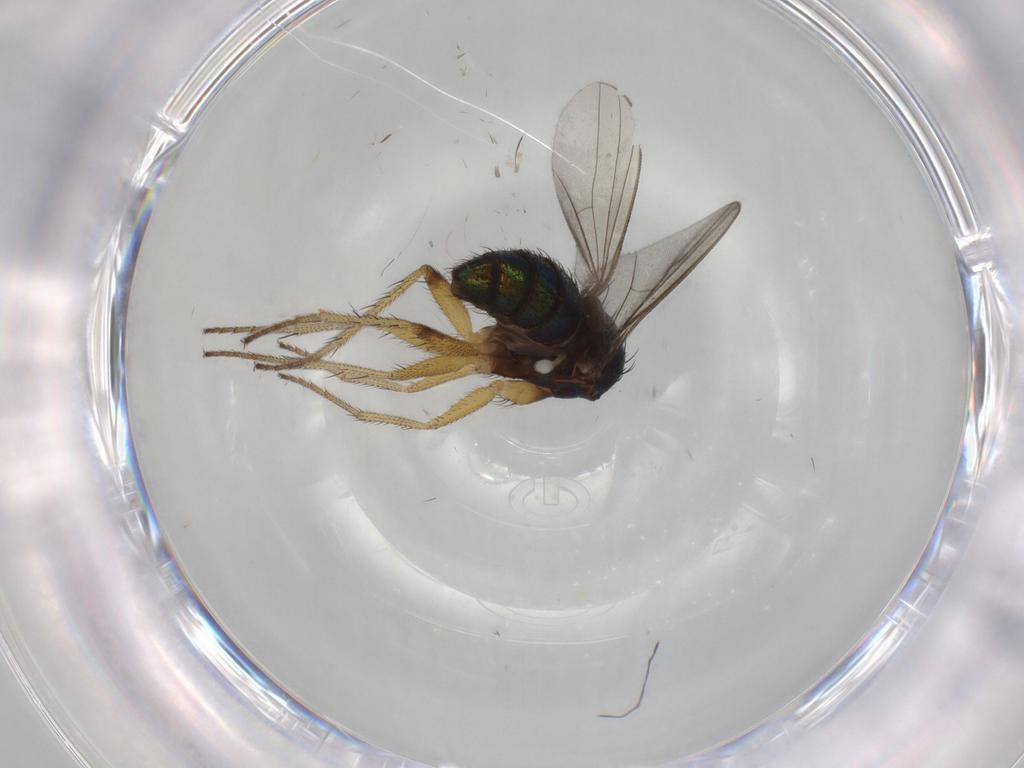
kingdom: Animalia
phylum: Arthropoda
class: Insecta
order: Diptera
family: Dolichopodidae
